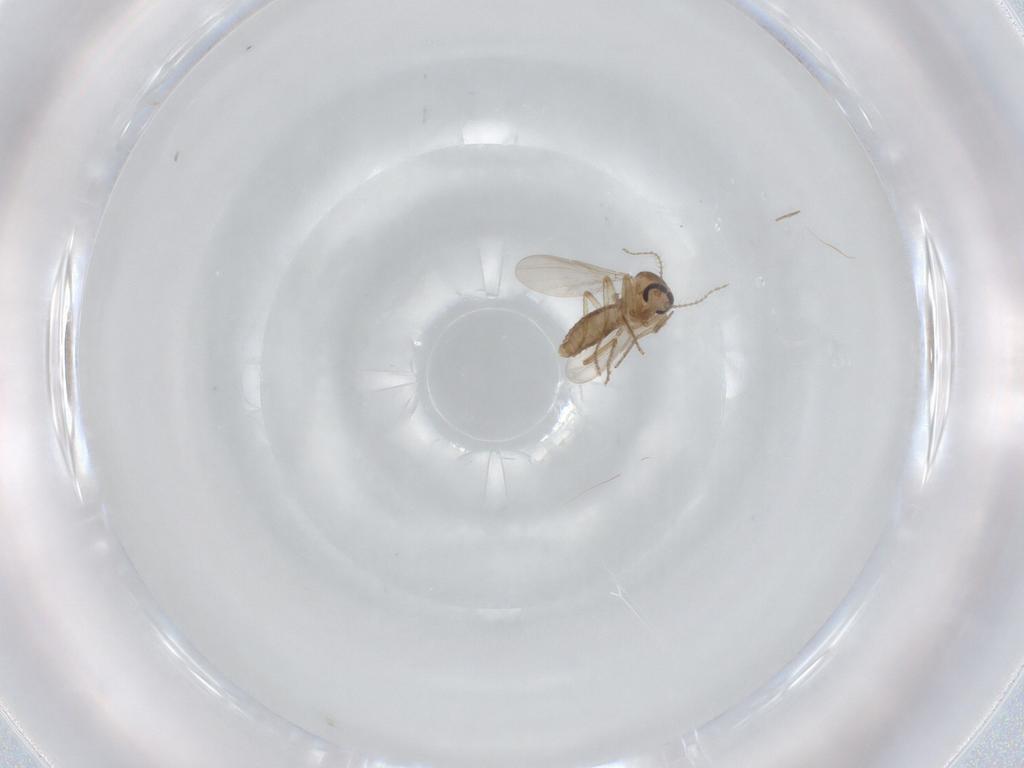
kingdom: Animalia
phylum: Arthropoda
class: Insecta
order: Diptera
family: Ceratopogonidae
